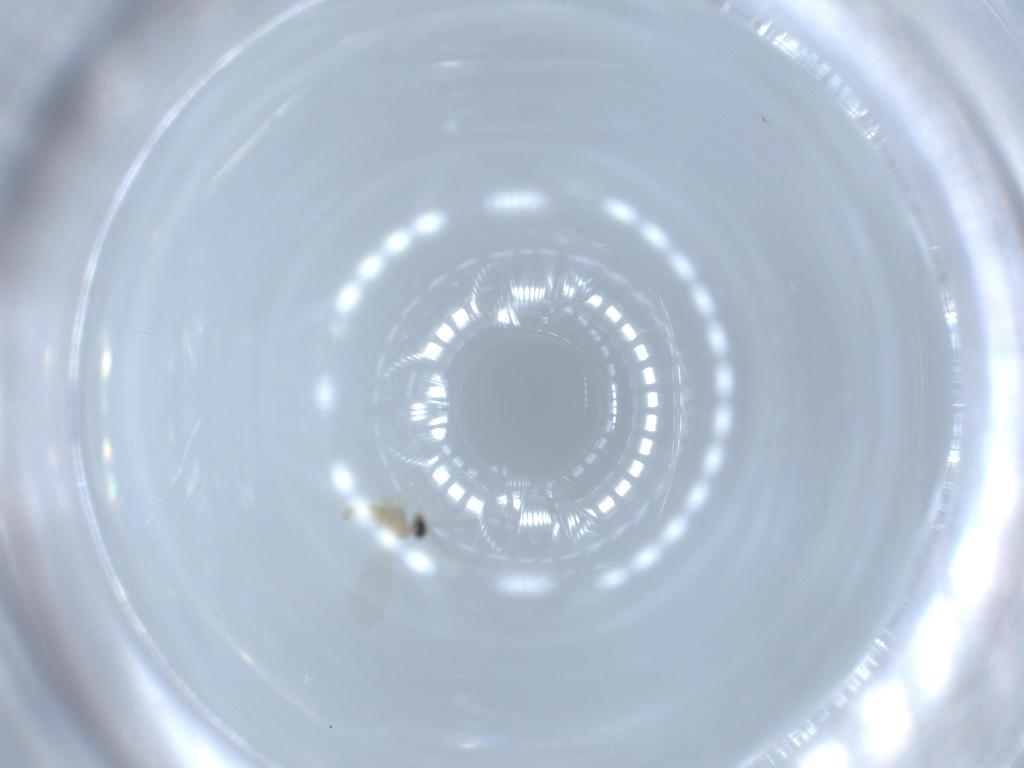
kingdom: Animalia
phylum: Arthropoda
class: Insecta
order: Diptera
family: Cecidomyiidae
